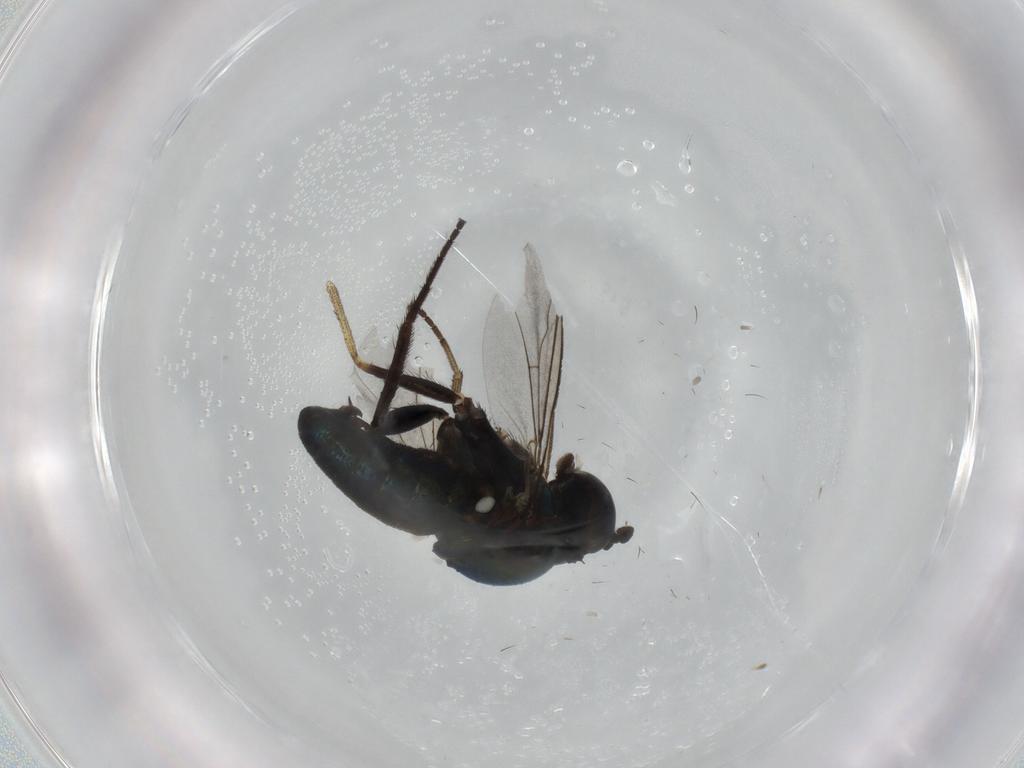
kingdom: Animalia
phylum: Arthropoda
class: Insecta
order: Diptera
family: Dolichopodidae
